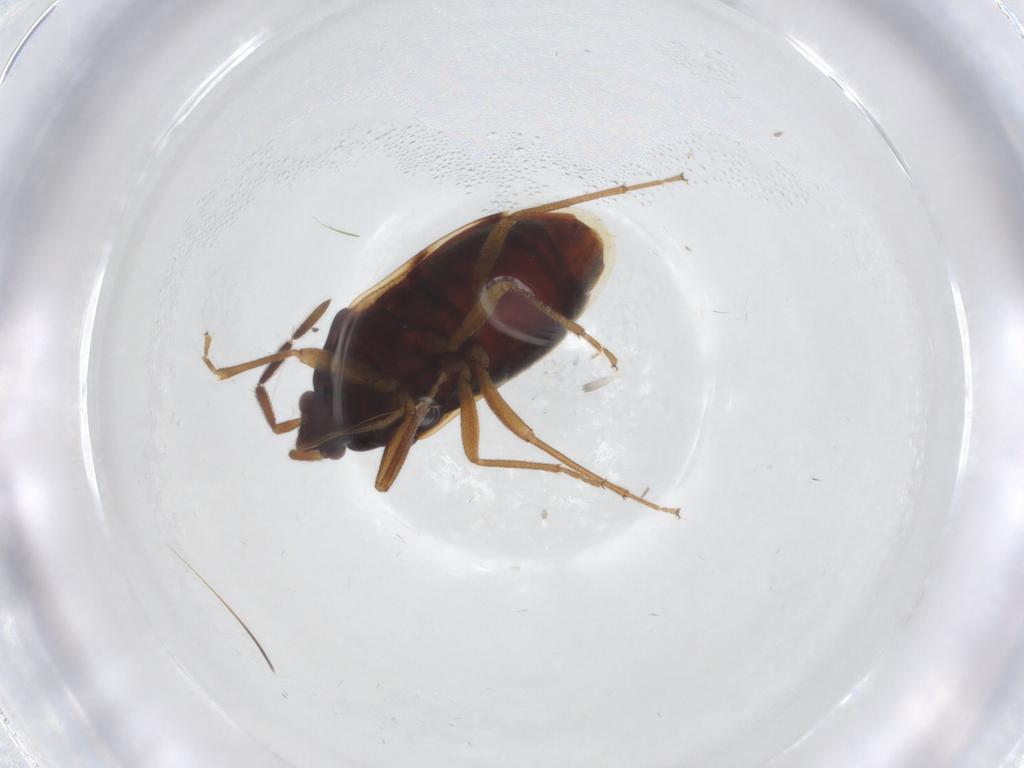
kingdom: Animalia
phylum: Arthropoda
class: Insecta
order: Hemiptera
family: Rhyparochromidae
